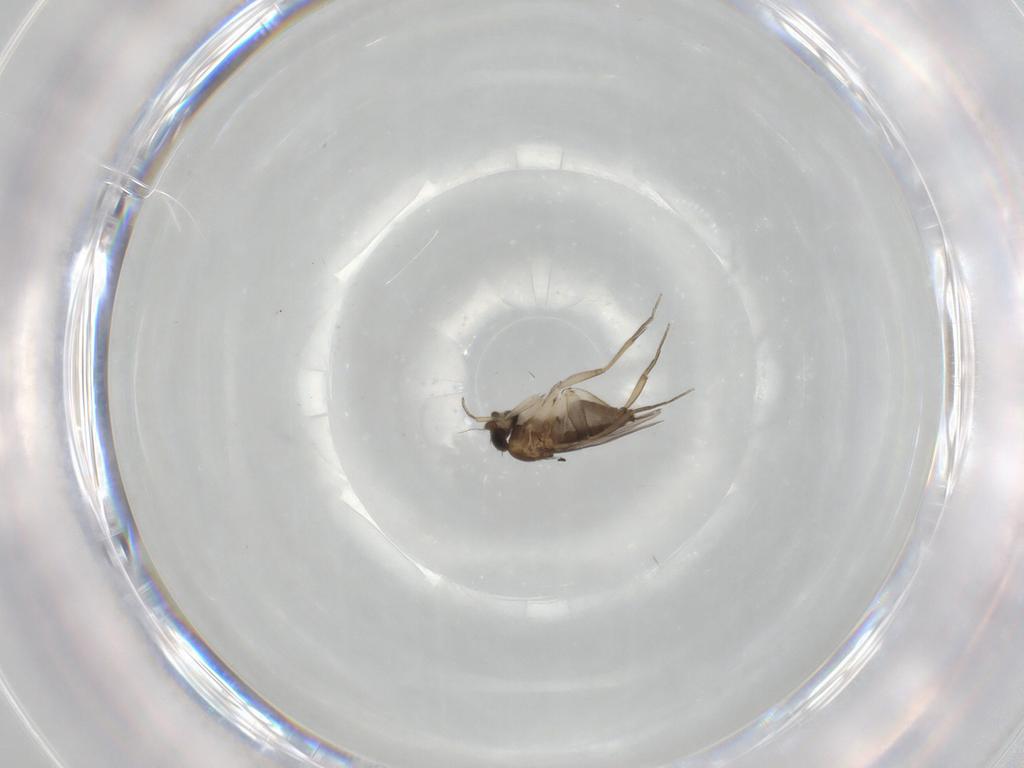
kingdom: Animalia
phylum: Arthropoda
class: Insecta
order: Diptera
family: Phoridae
